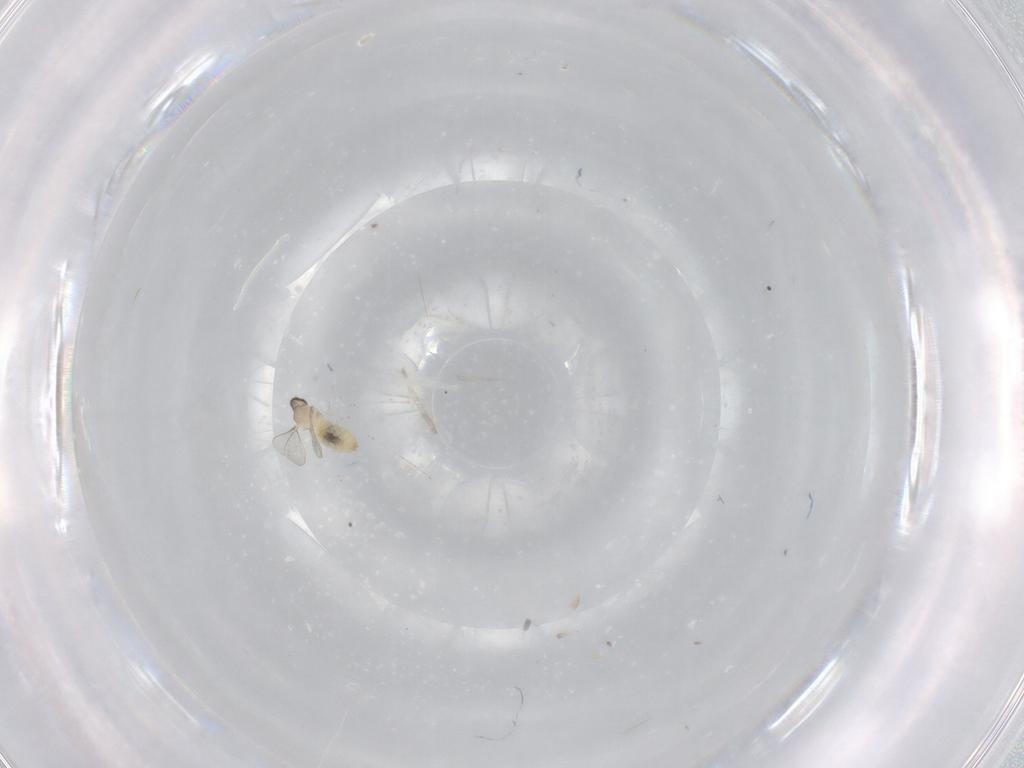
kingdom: Animalia
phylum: Arthropoda
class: Insecta
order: Diptera
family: Cecidomyiidae
